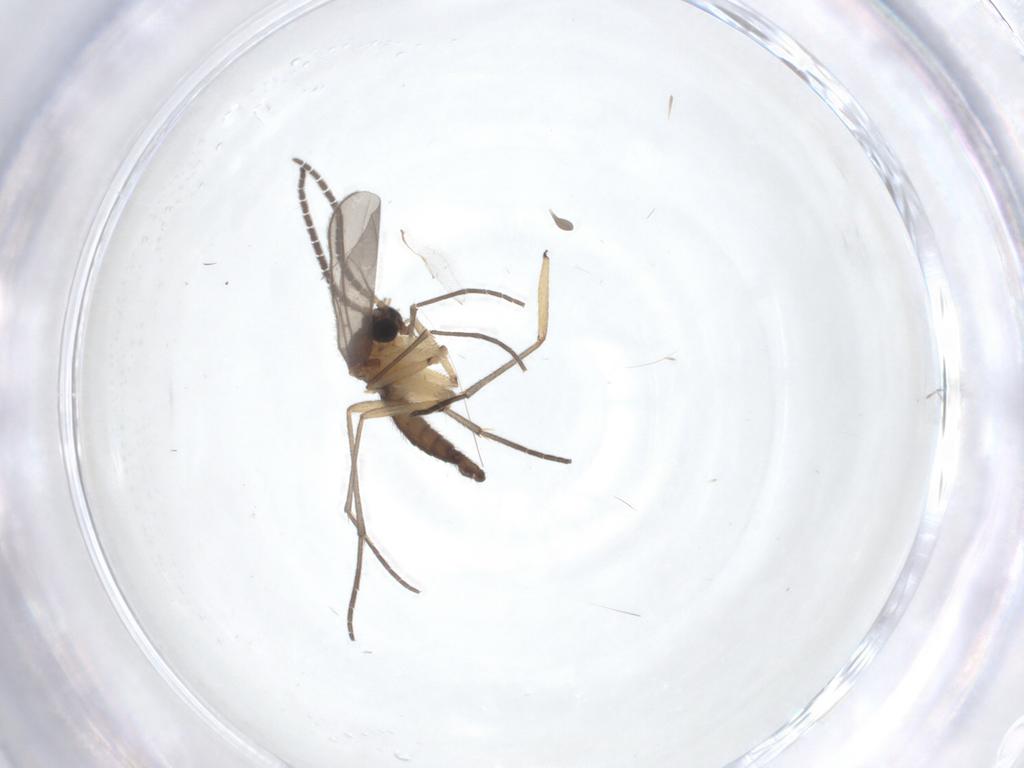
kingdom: Animalia
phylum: Arthropoda
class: Insecta
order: Diptera
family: Sciaridae
